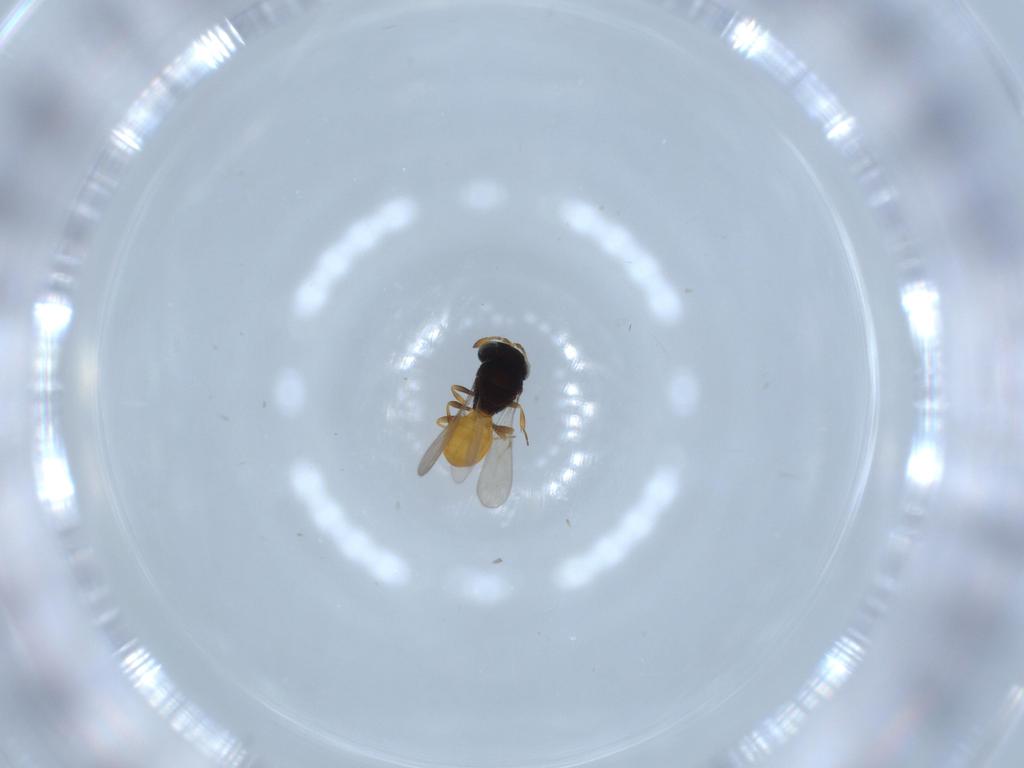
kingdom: Animalia
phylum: Arthropoda
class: Insecta
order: Hymenoptera
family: Scelionidae
